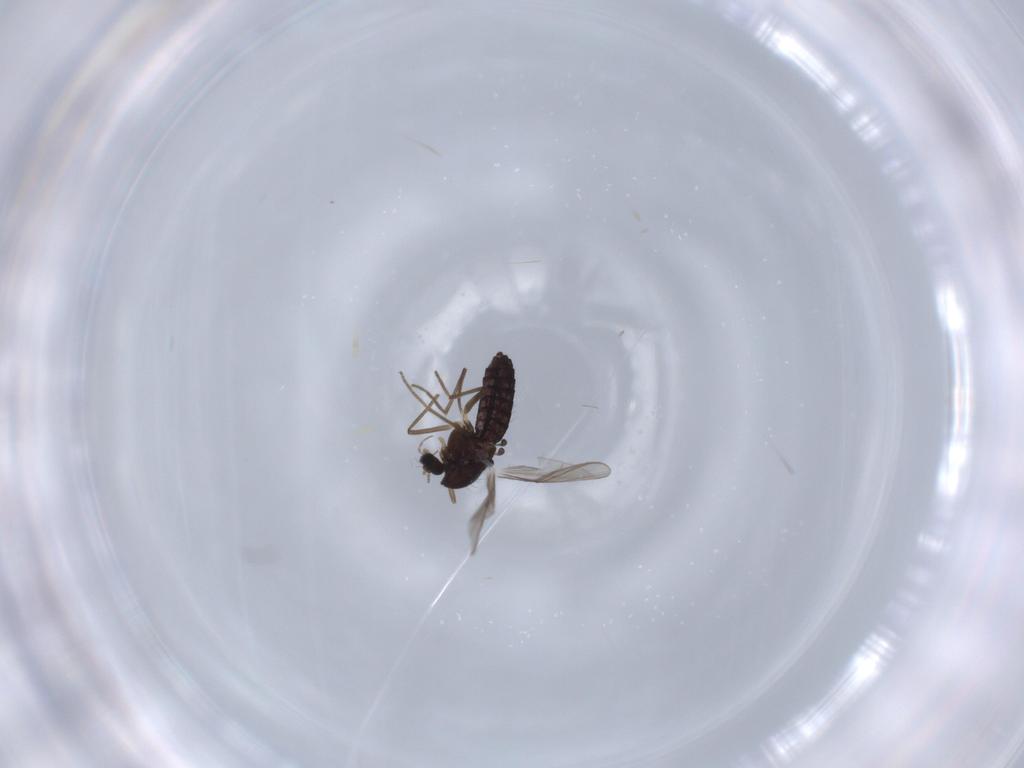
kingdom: Animalia
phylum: Arthropoda
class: Insecta
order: Diptera
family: Chironomidae
